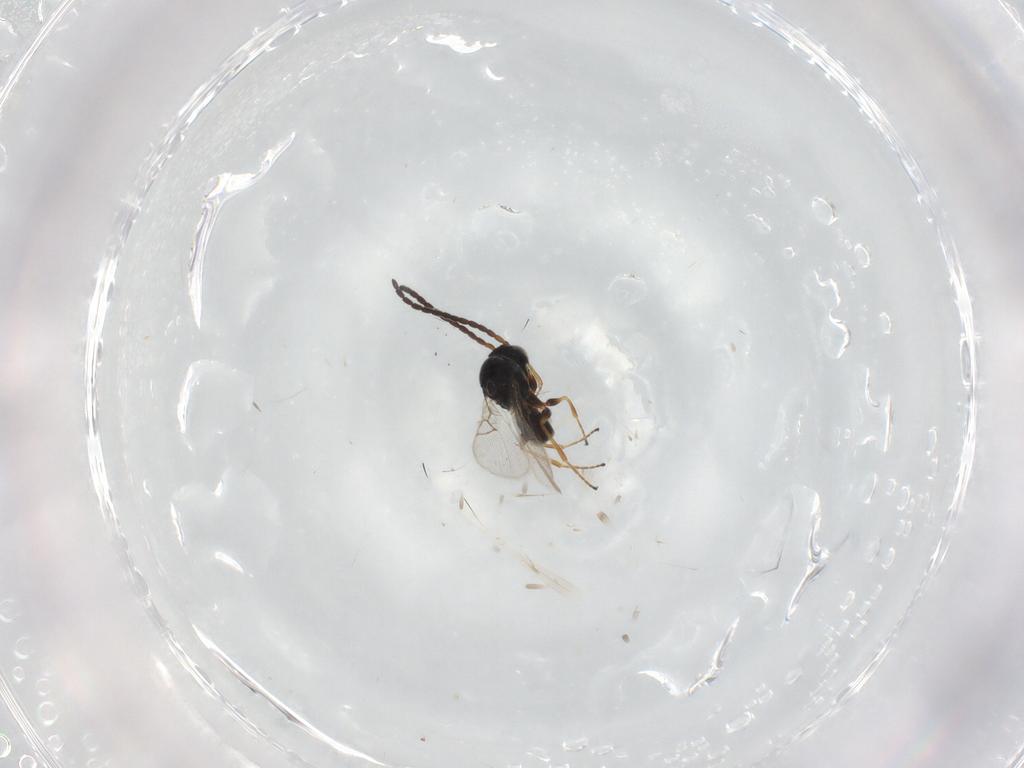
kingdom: Animalia
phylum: Arthropoda
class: Insecta
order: Hymenoptera
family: Figitidae
